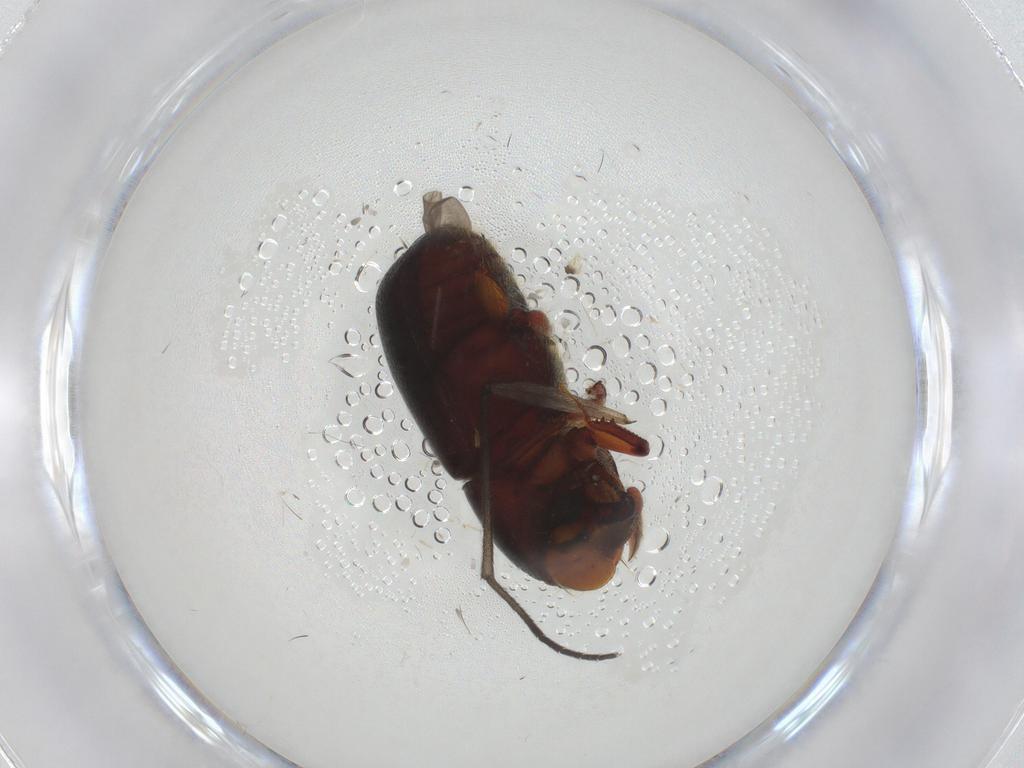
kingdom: Animalia
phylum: Arthropoda
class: Insecta
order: Coleoptera
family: Curculionidae
